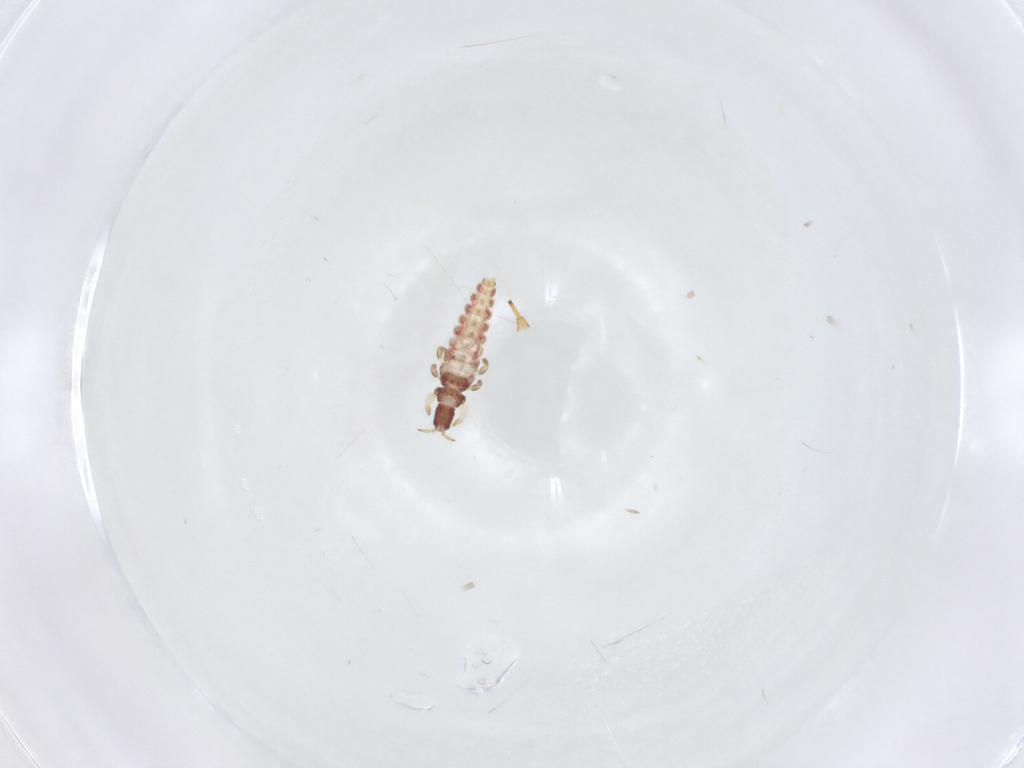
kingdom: Animalia
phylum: Arthropoda
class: Insecta
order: Thysanoptera
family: Phlaeothripidae
